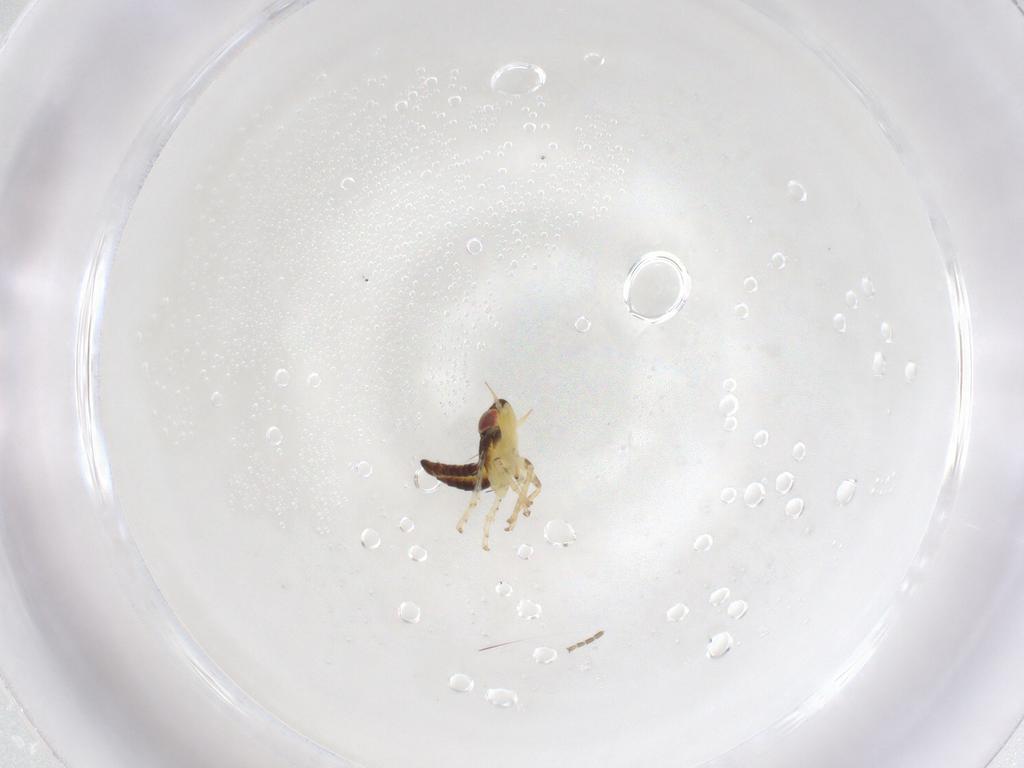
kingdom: Animalia
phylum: Arthropoda
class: Insecta
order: Hemiptera
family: Cicadellidae
